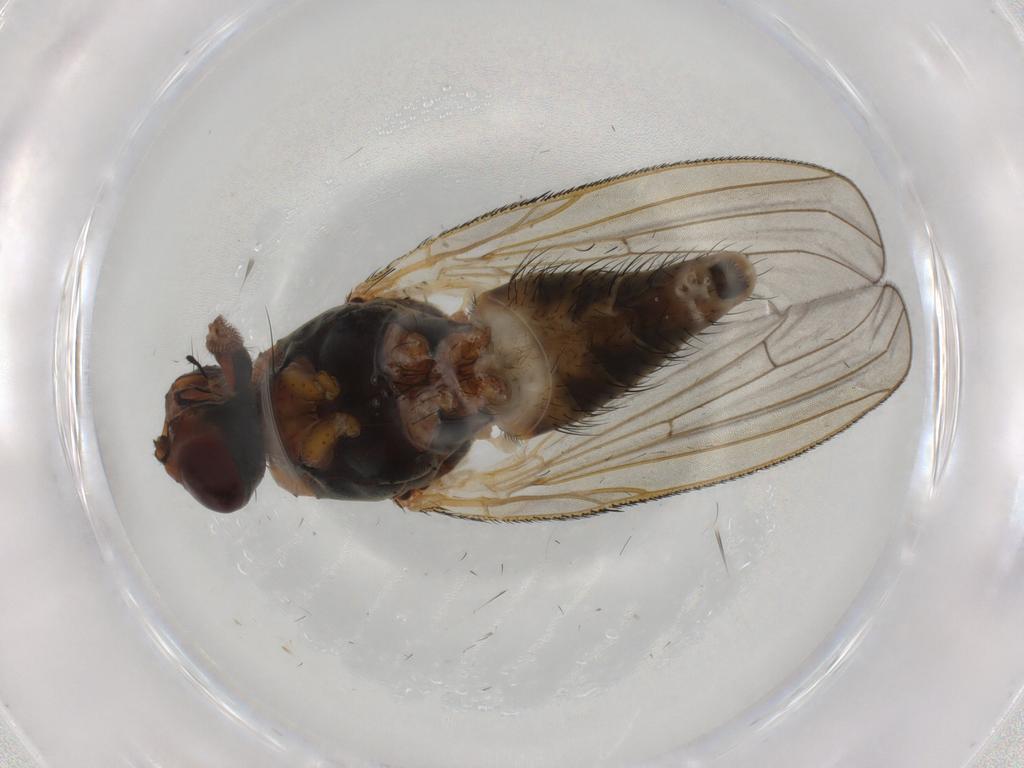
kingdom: Animalia
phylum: Arthropoda
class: Insecta
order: Diptera
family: Anthomyiidae
